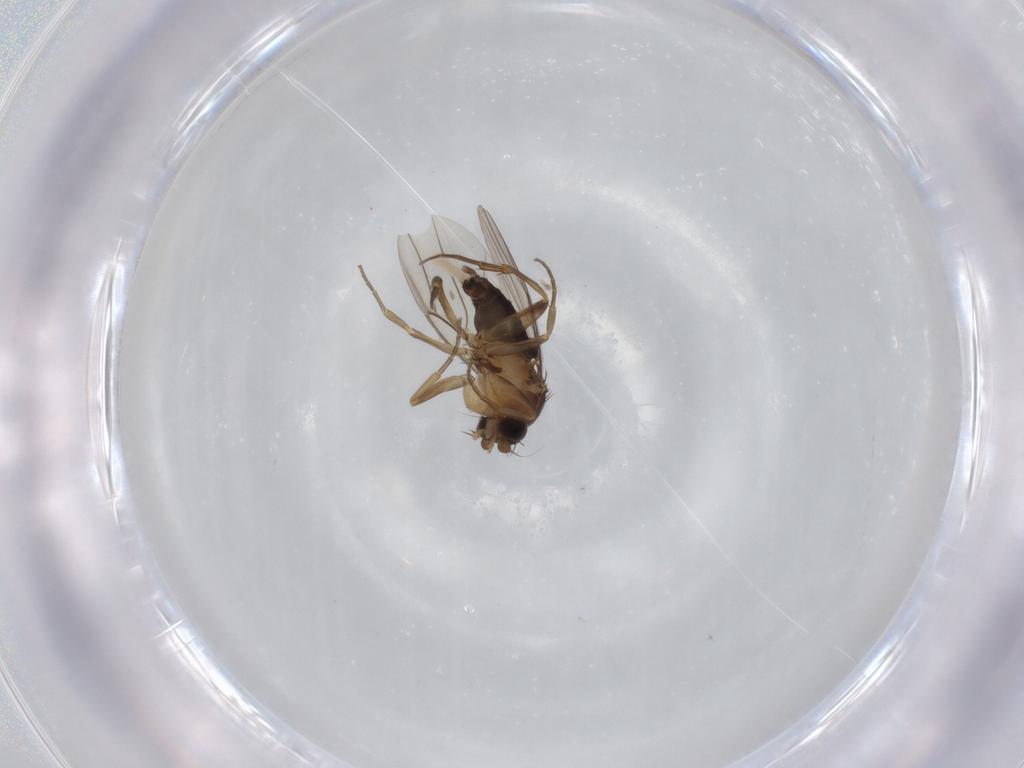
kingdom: Animalia
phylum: Arthropoda
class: Insecta
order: Diptera
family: Phoridae
